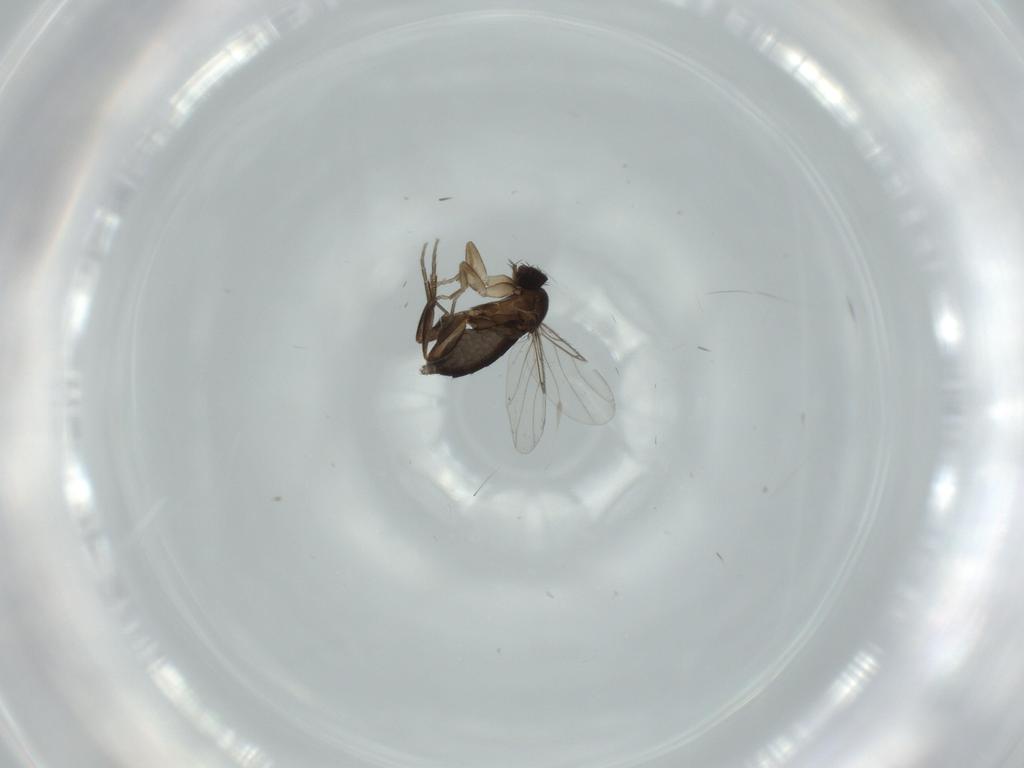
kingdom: Animalia
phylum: Arthropoda
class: Insecta
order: Diptera
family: Phoridae
